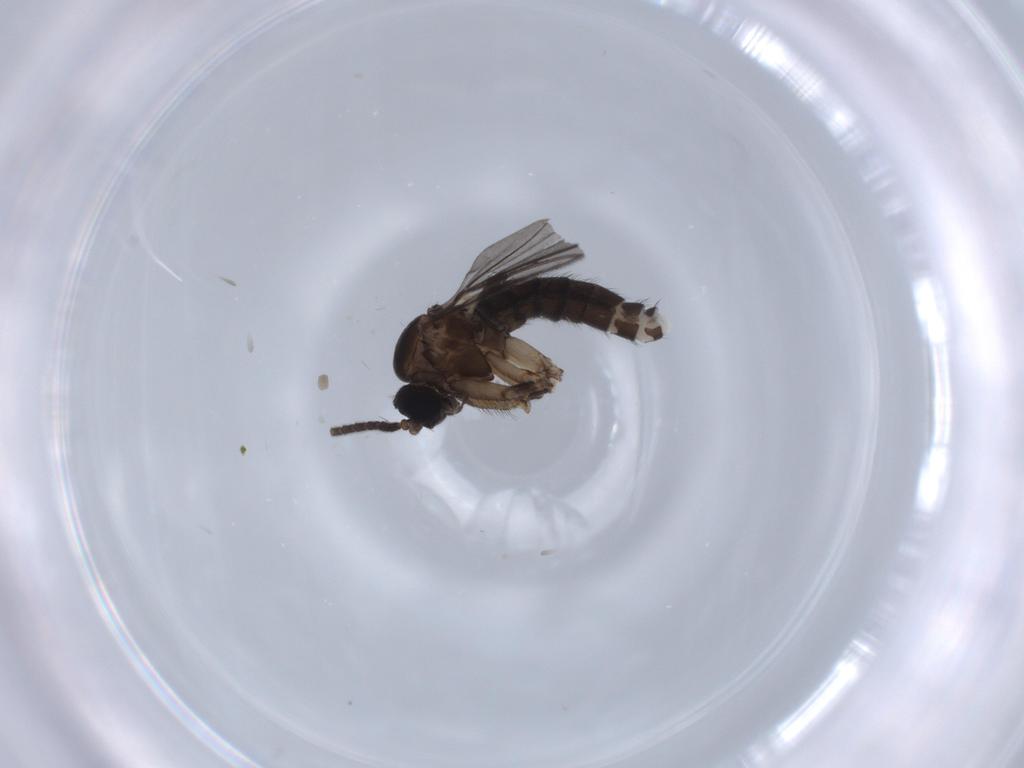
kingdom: Animalia
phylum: Arthropoda
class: Insecta
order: Diptera
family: Sciaridae
